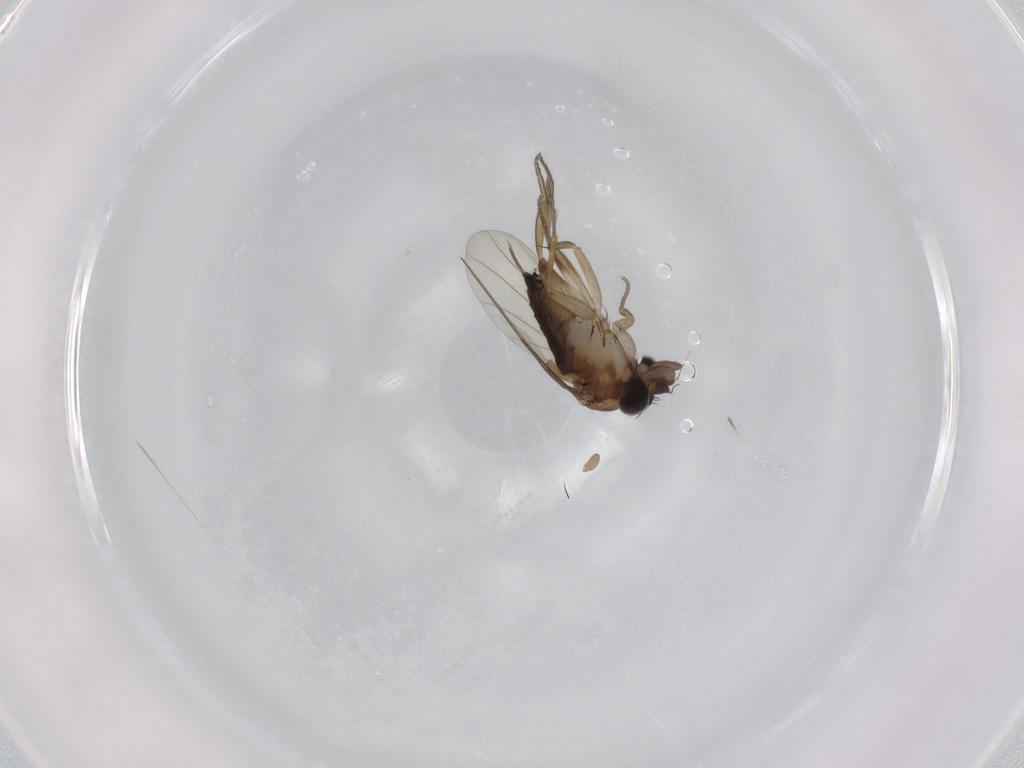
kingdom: Animalia
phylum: Arthropoda
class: Insecta
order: Diptera
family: Phoridae
